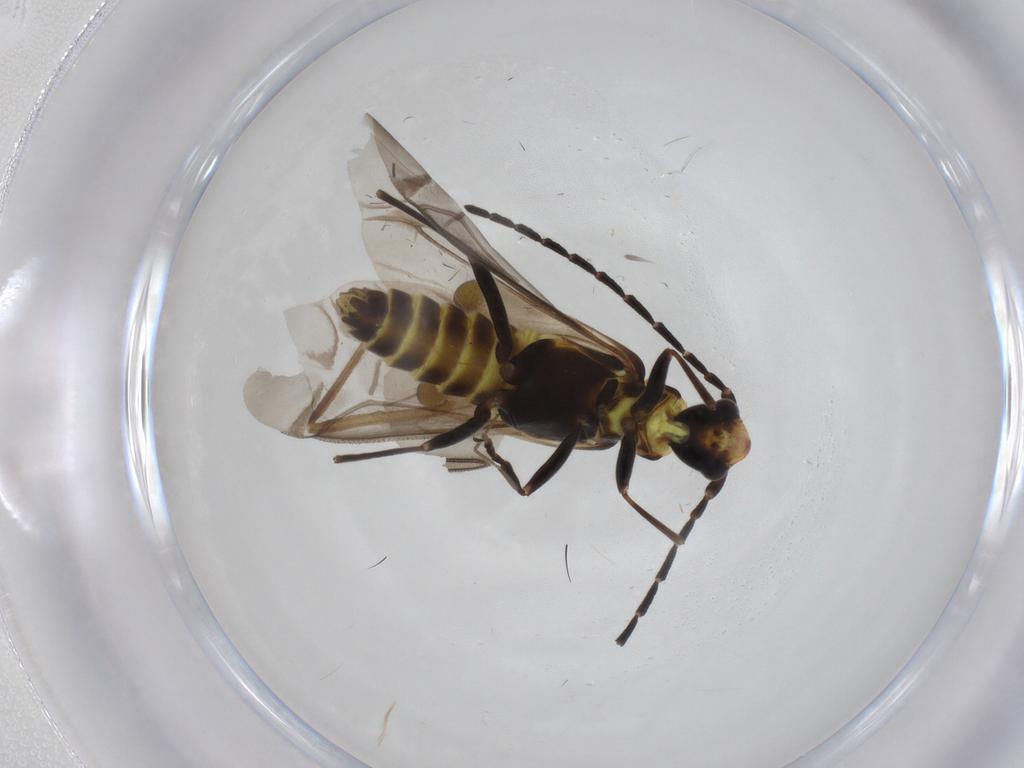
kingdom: Animalia
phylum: Arthropoda
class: Insecta
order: Coleoptera
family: Cantharidae
